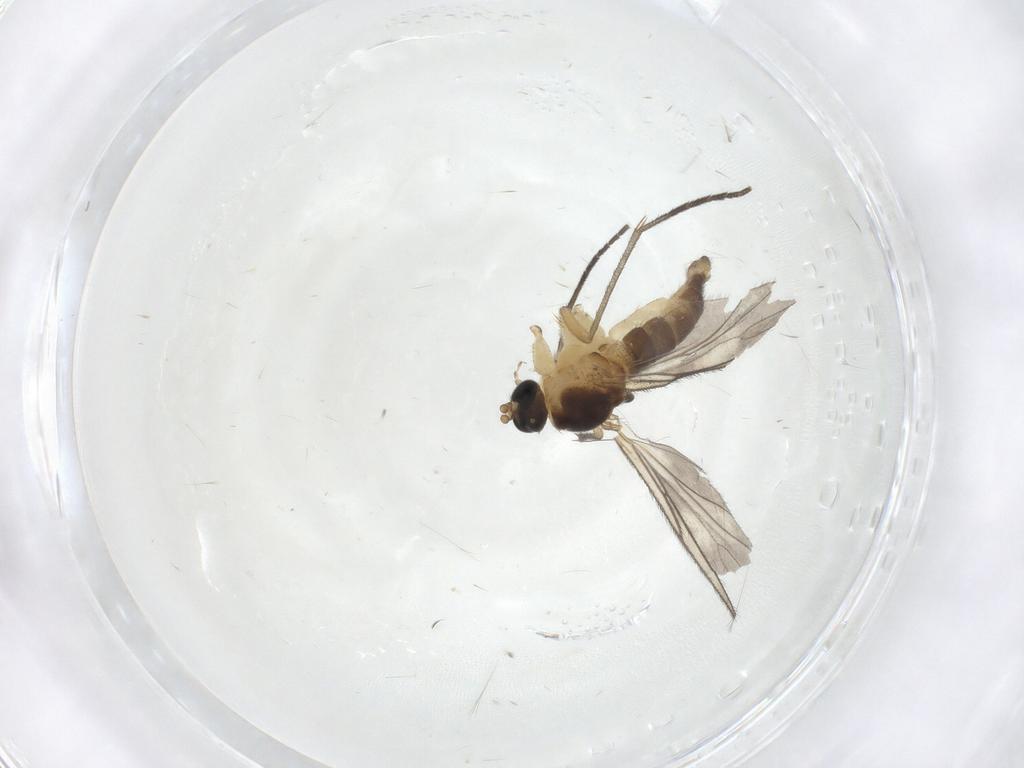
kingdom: Animalia
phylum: Arthropoda
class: Insecta
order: Diptera
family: Sciaridae
